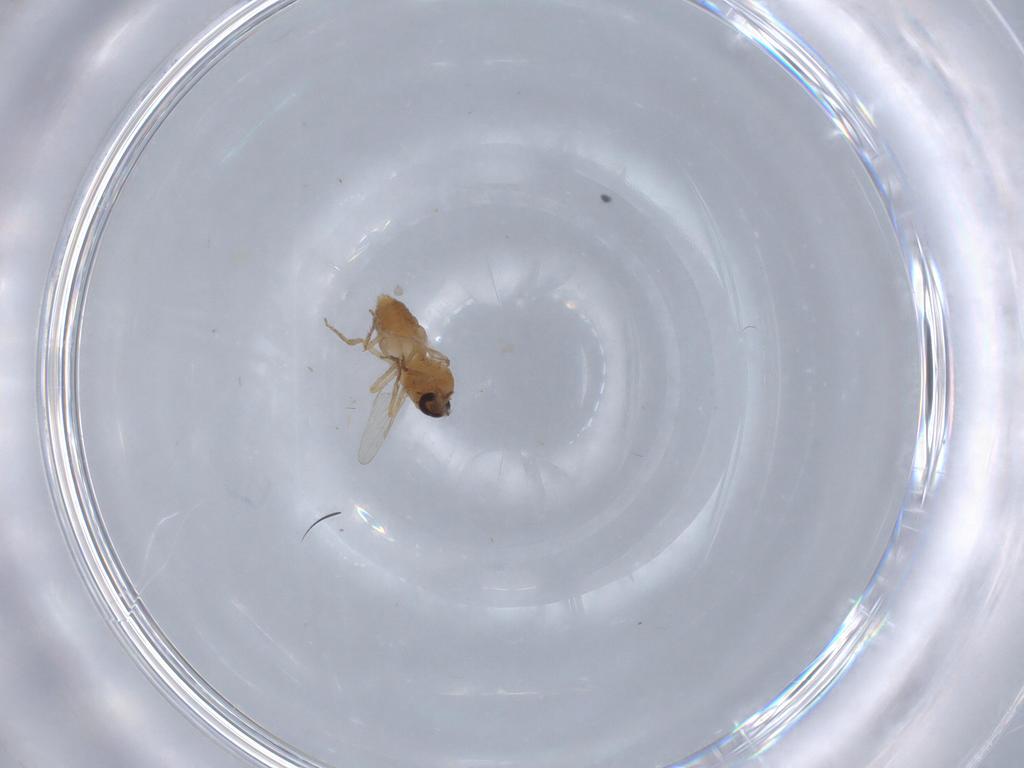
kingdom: Animalia
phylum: Arthropoda
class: Insecta
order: Diptera
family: Ceratopogonidae
